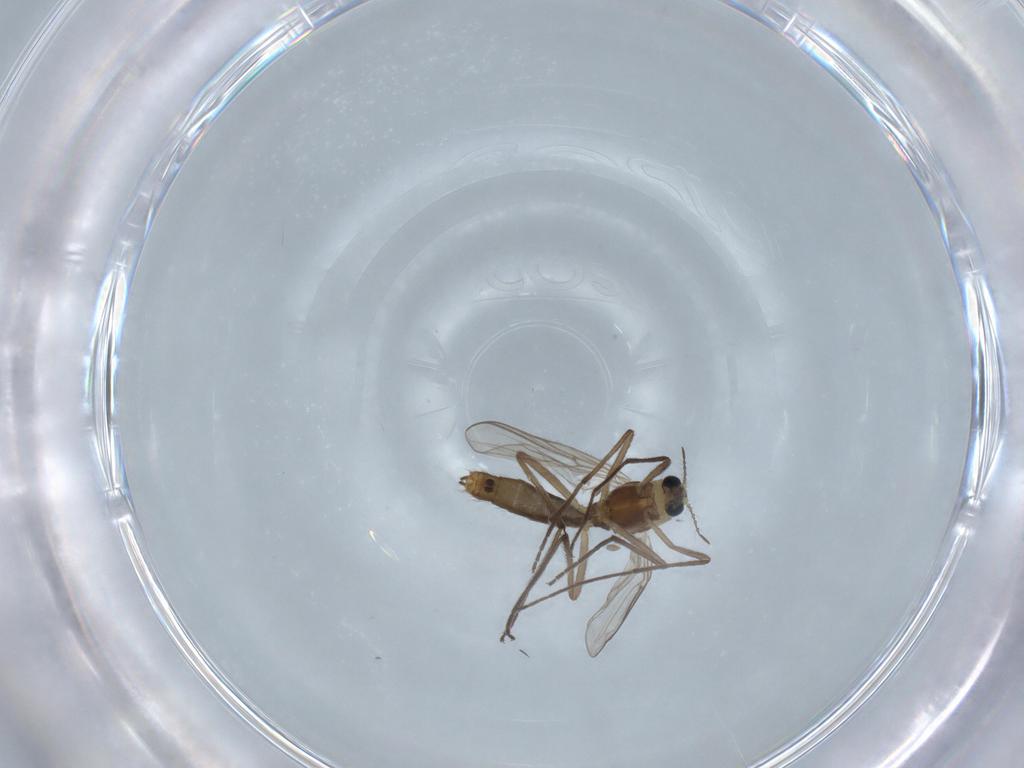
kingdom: Animalia
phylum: Arthropoda
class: Insecta
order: Diptera
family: Chironomidae
